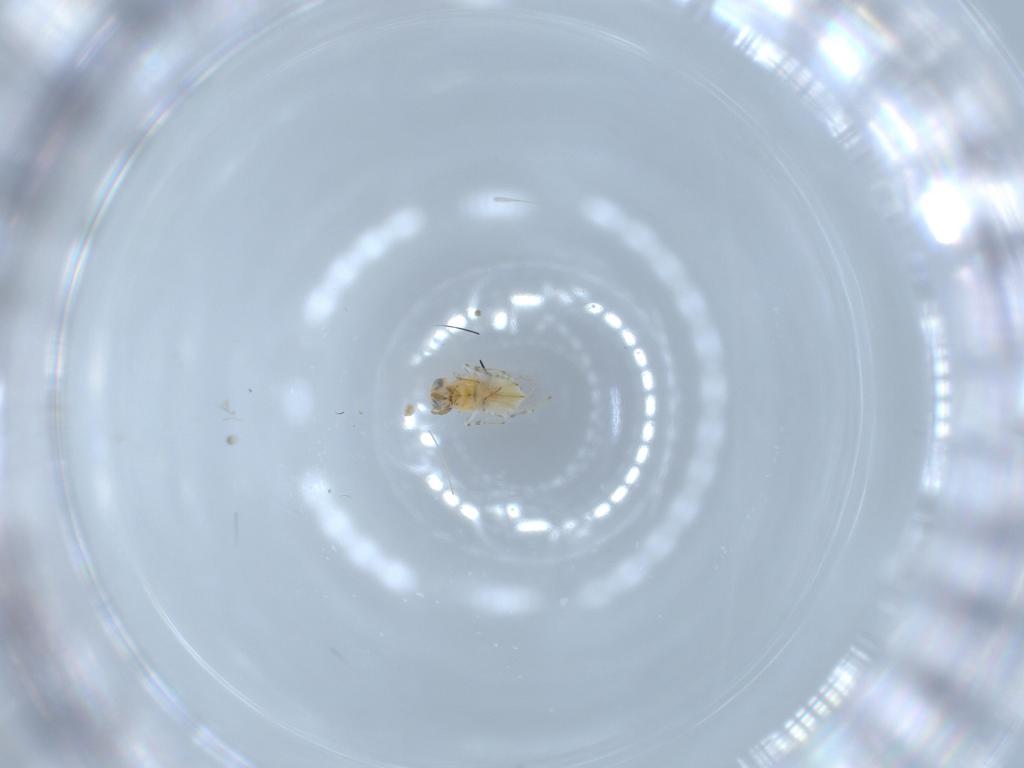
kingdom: Animalia
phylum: Arthropoda
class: Insecta
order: Hymenoptera
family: Aphelinidae
